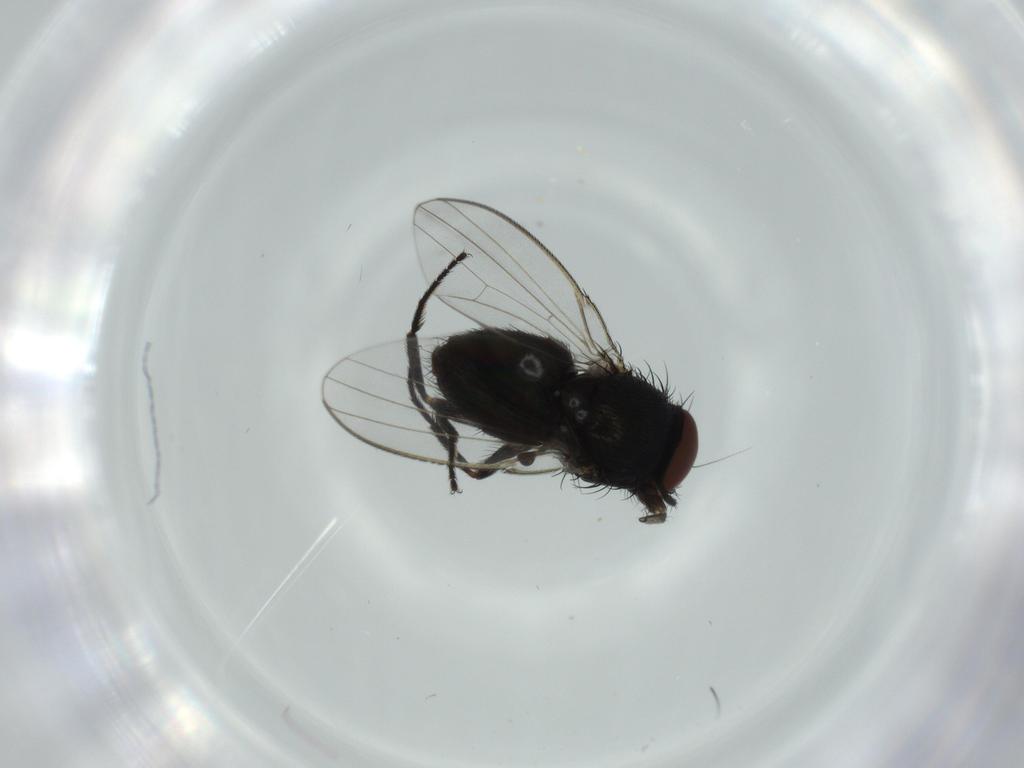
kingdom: Animalia
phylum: Arthropoda
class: Insecta
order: Diptera
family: Milichiidae
